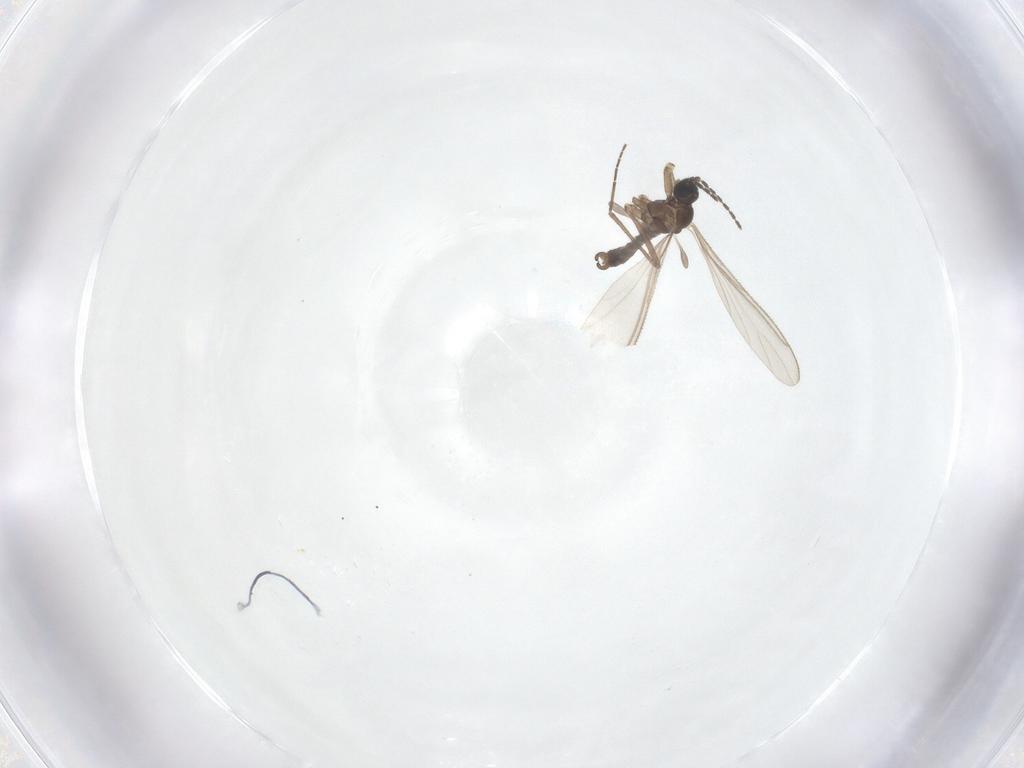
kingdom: Animalia
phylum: Arthropoda
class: Insecta
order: Diptera
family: Sciaridae
